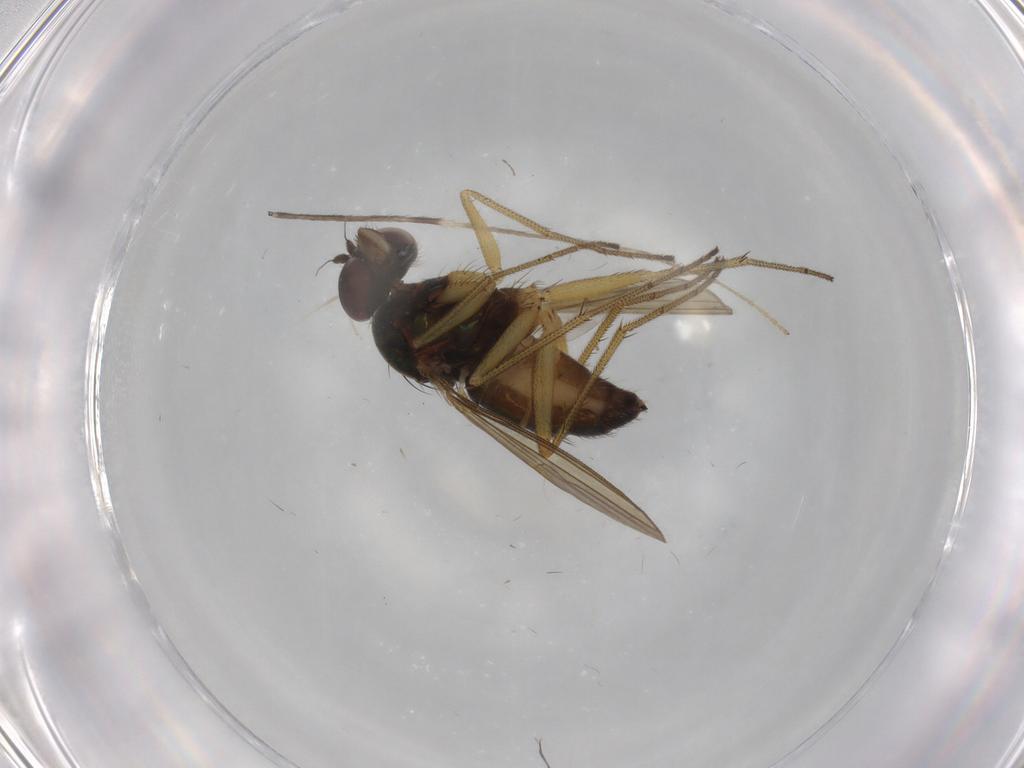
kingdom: Animalia
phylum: Arthropoda
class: Insecta
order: Diptera
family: Dolichopodidae
